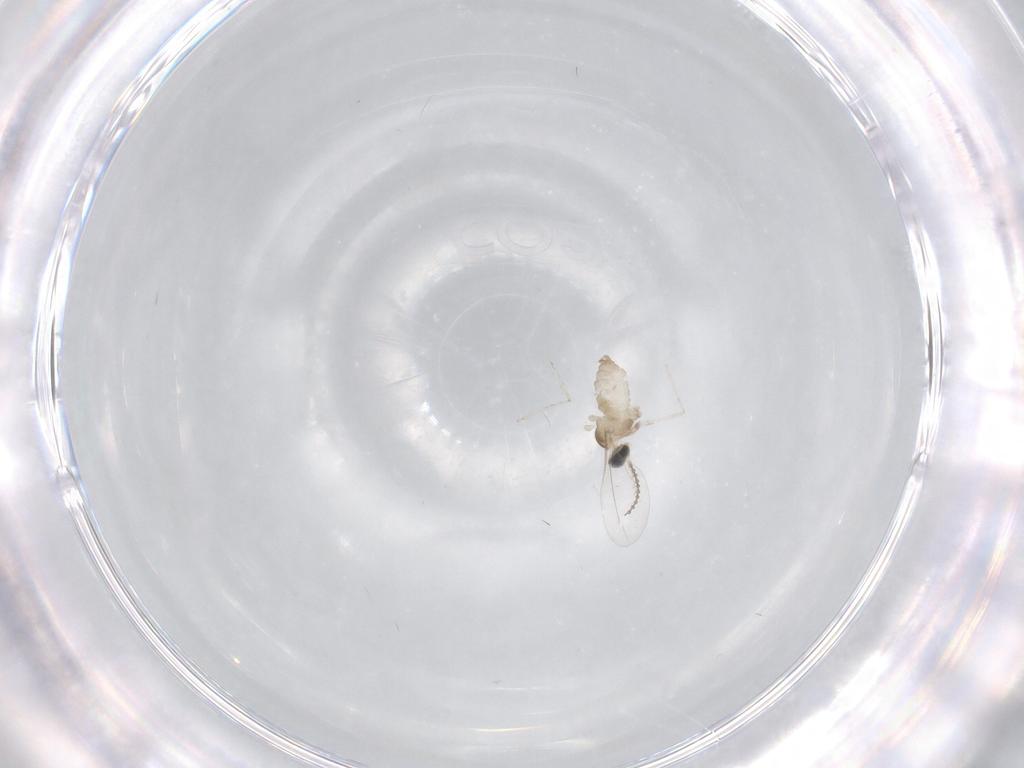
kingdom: Animalia
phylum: Arthropoda
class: Insecta
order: Diptera
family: Cecidomyiidae
